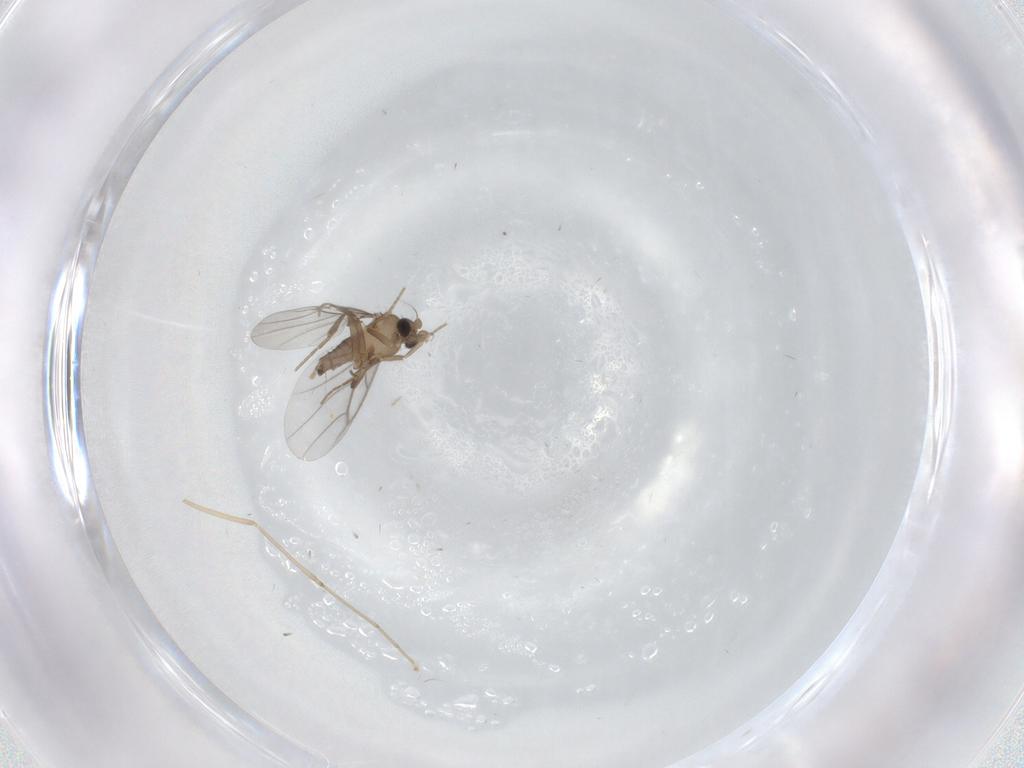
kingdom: Animalia
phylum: Arthropoda
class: Insecta
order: Diptera
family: Cecidomyiidae
